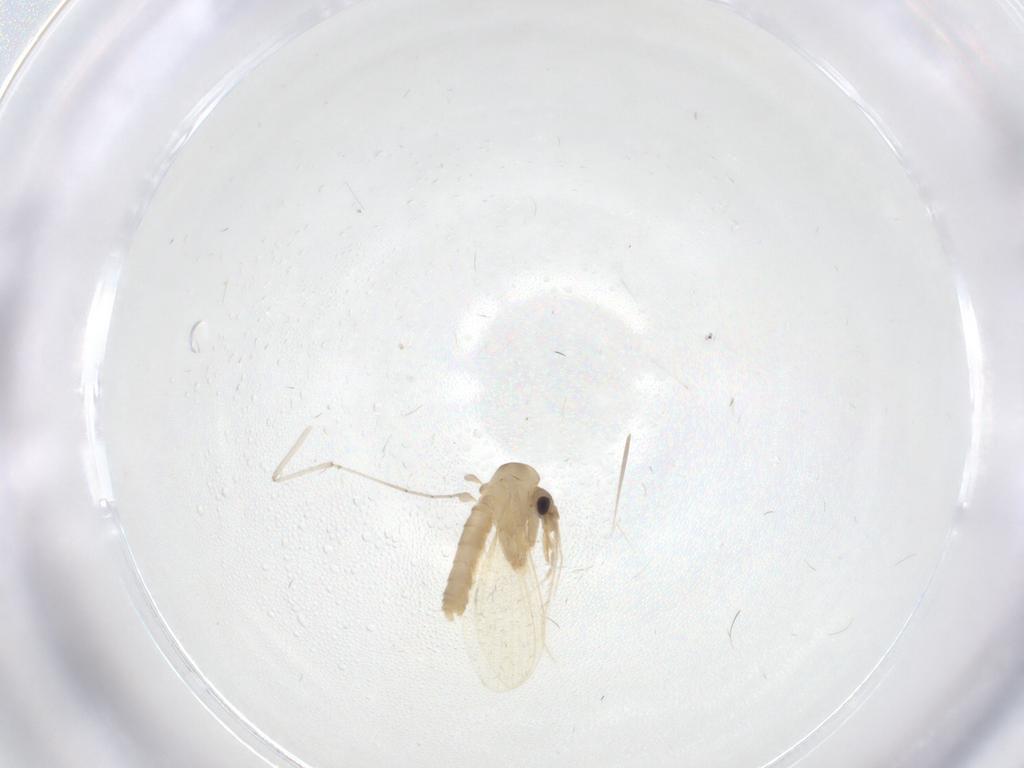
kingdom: Animalia
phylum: Arthropoda
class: Insecta
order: Diptera
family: Psychodidae
